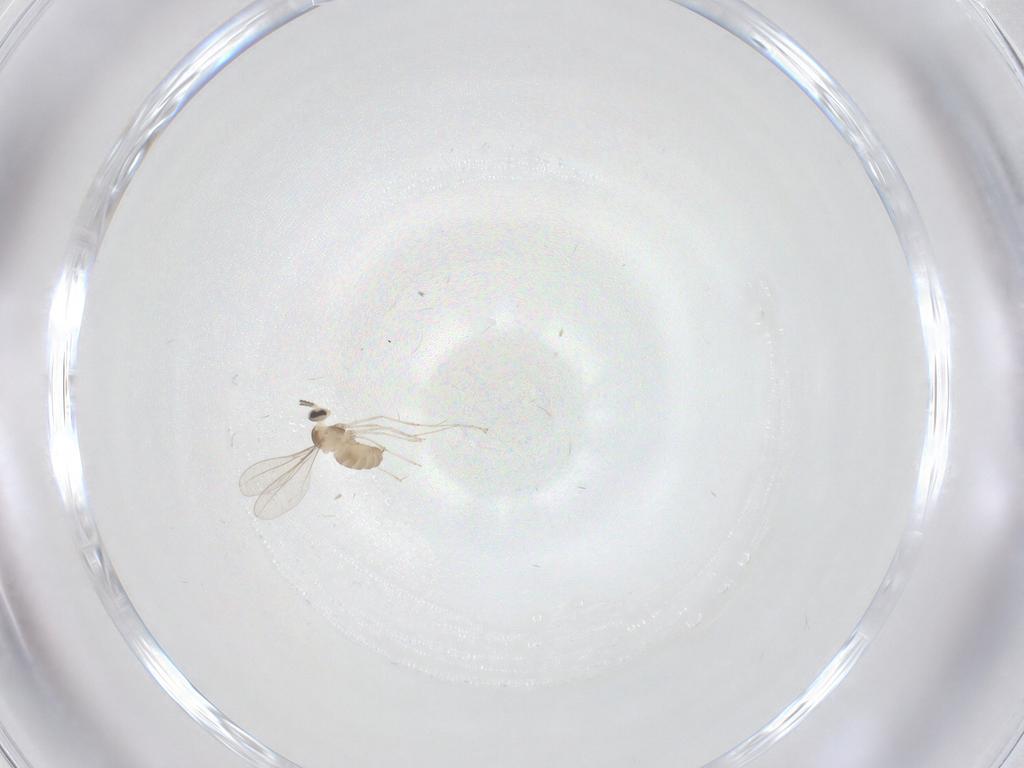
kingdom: Animalia
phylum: Arthropoda
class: Insecta
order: Diptera
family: Cecidomyiidae
